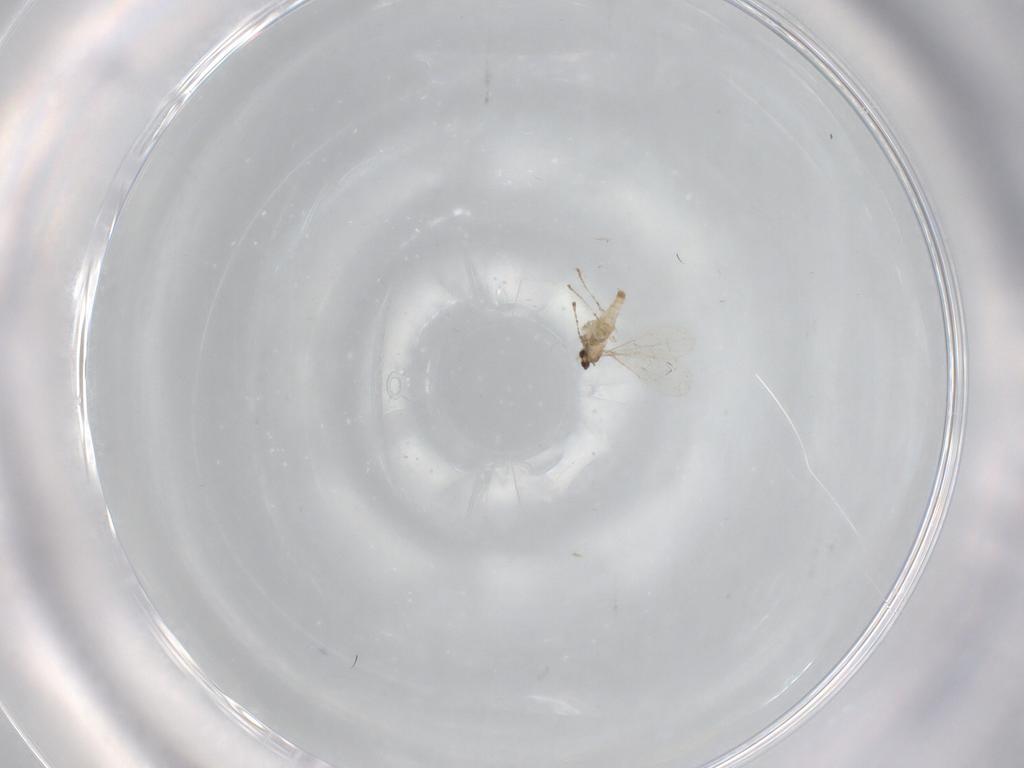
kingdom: Animalia
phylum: Arthropoda
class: Insecta
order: Diptera
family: Cecidomyiidae
